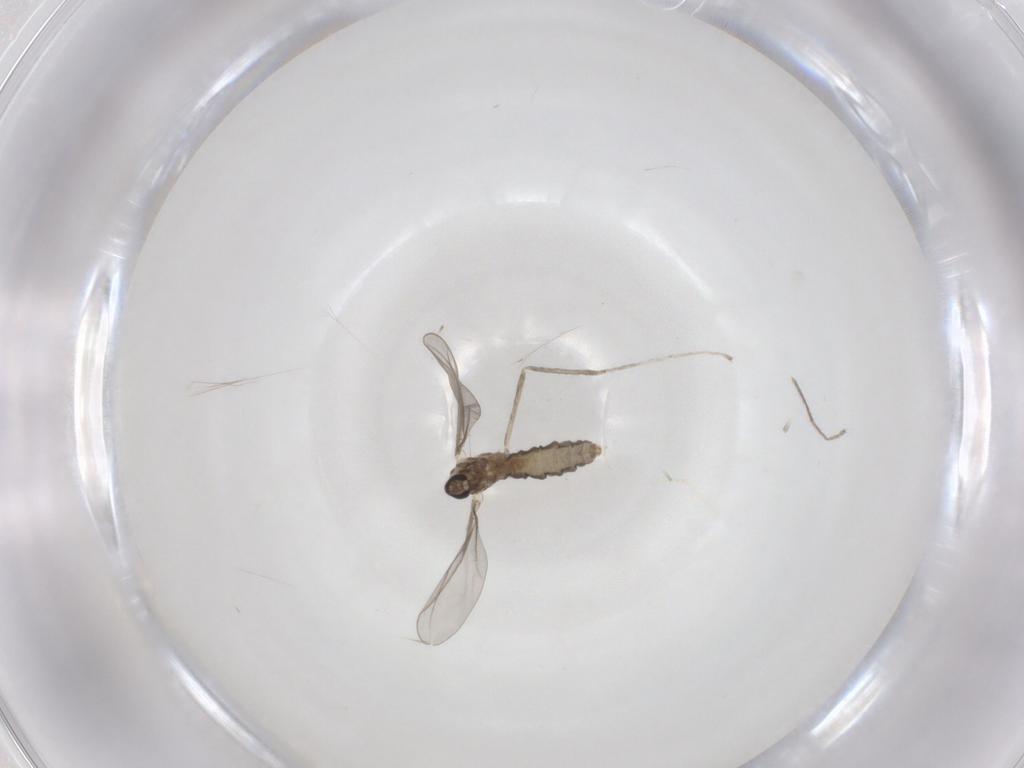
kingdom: Animalia
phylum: Arthropoda
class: Insecta
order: Diptera
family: Cecidomyiidae
